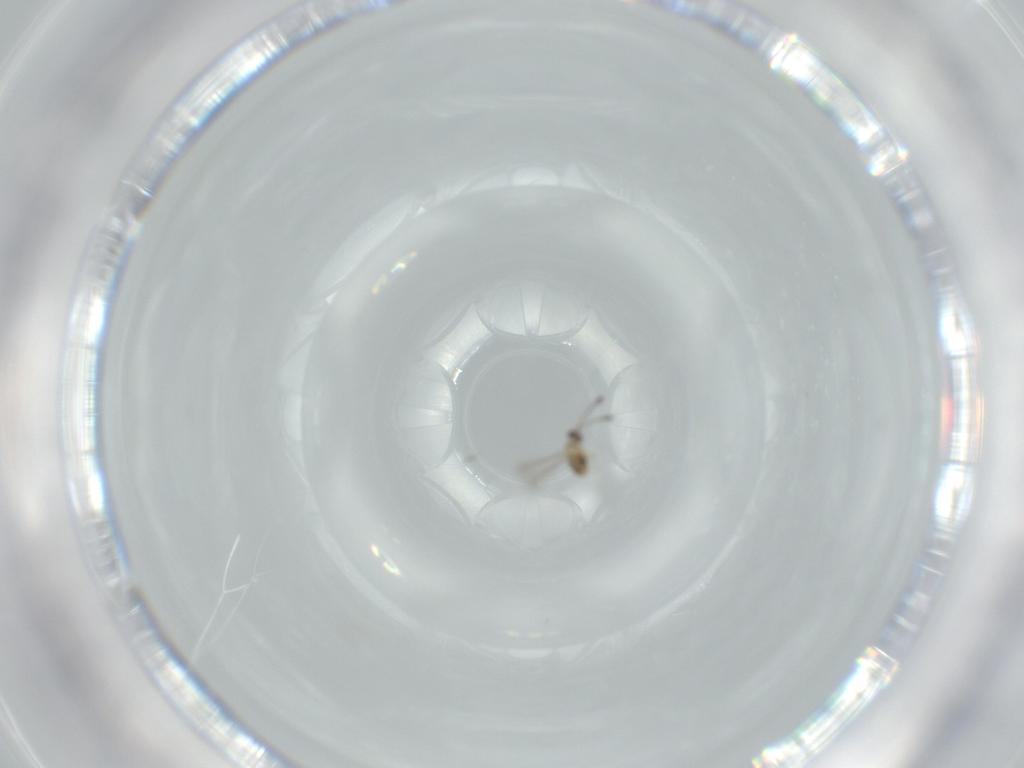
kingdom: Animalia
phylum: Arthropoda
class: Insecta
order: Hymenoptera
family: Mymaridae
